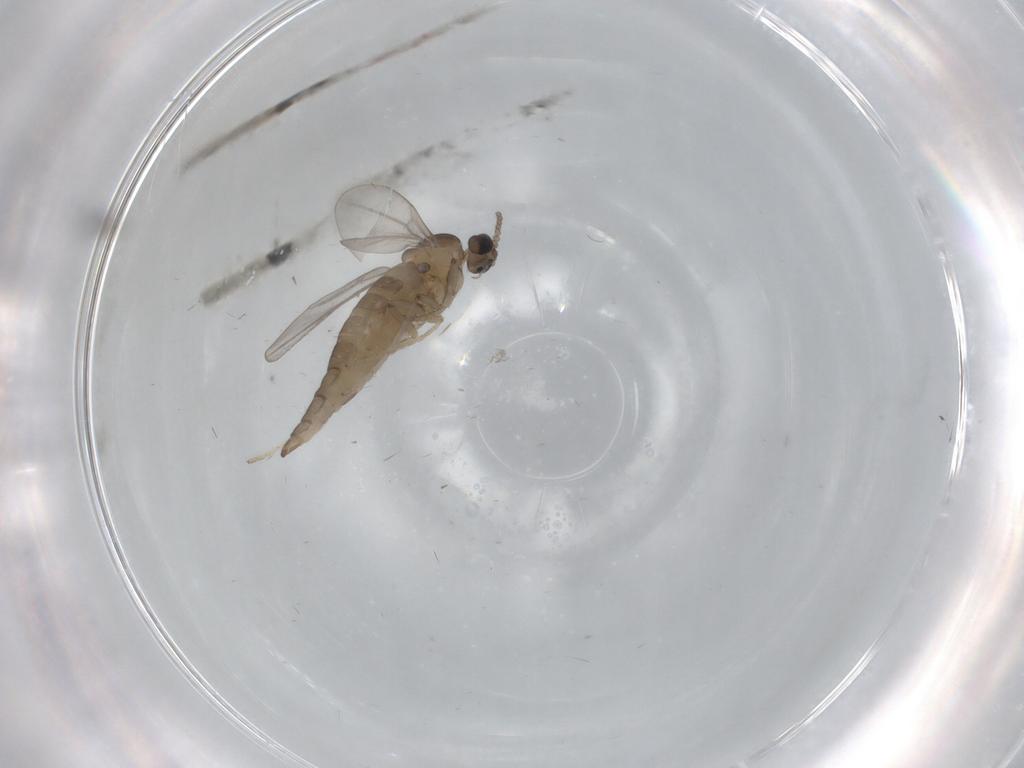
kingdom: Animalia
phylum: Arthropoda
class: Insecta
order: Diptera
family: Cecidomyiidae
